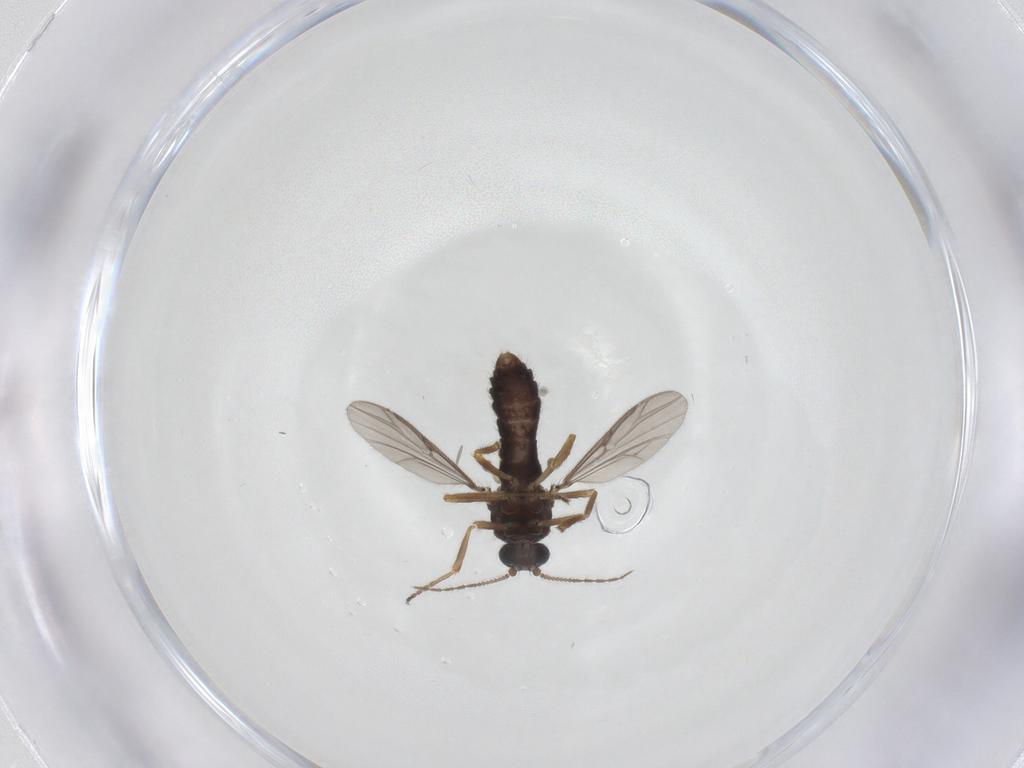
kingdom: Animalia
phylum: Arthropoda
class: Insecta
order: Diptera
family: Ceratopogonidae
